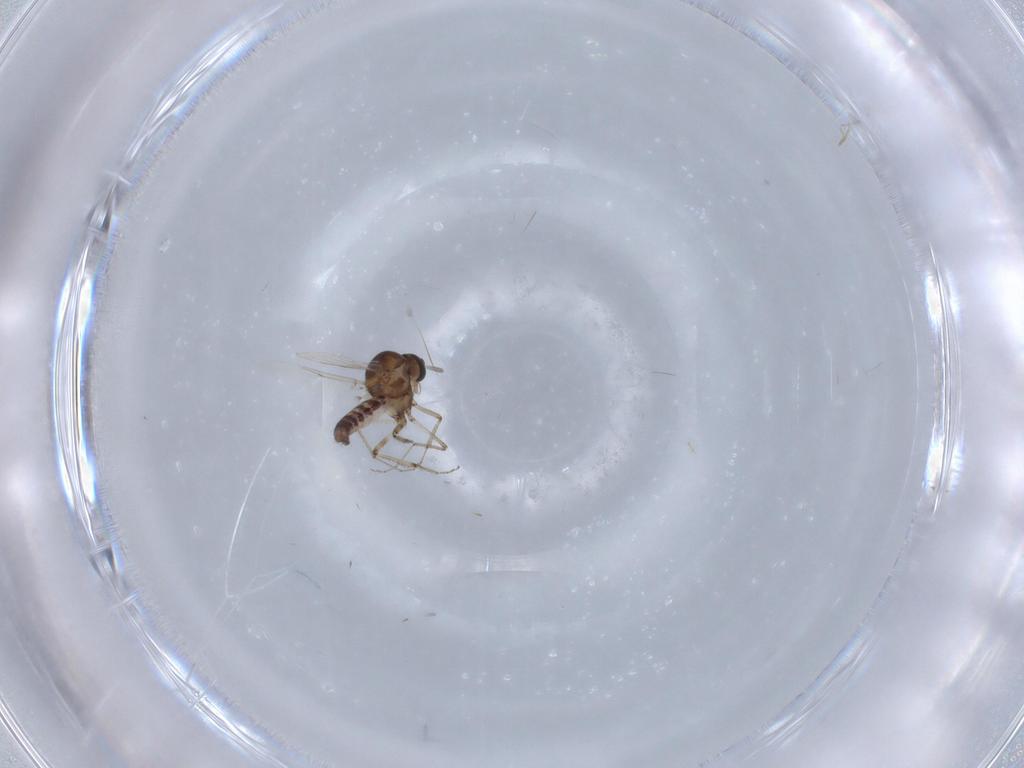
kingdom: Animalia
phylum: Arthropoda
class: Insecta
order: Diptera
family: Ceratopogonidae
